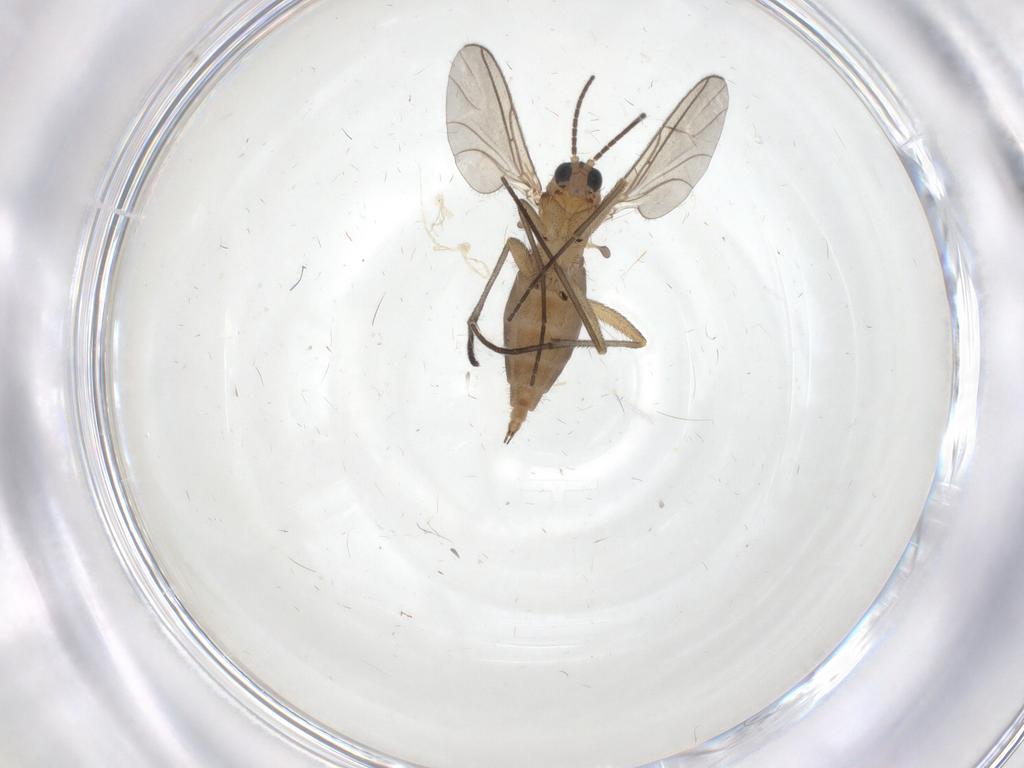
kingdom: Animalia
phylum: Arthropoda
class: Insecta
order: Diptera
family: Sciaridae
